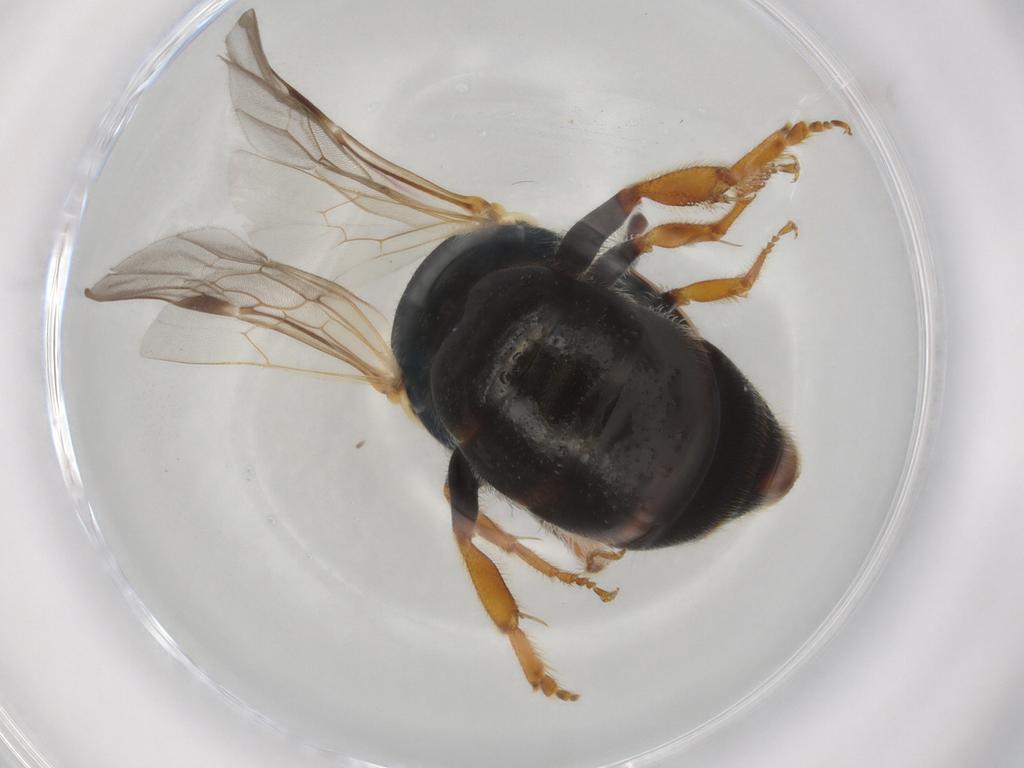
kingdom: Animalia
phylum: Arthropoda
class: Insecta
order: Hymenoptera
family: Halictidae
